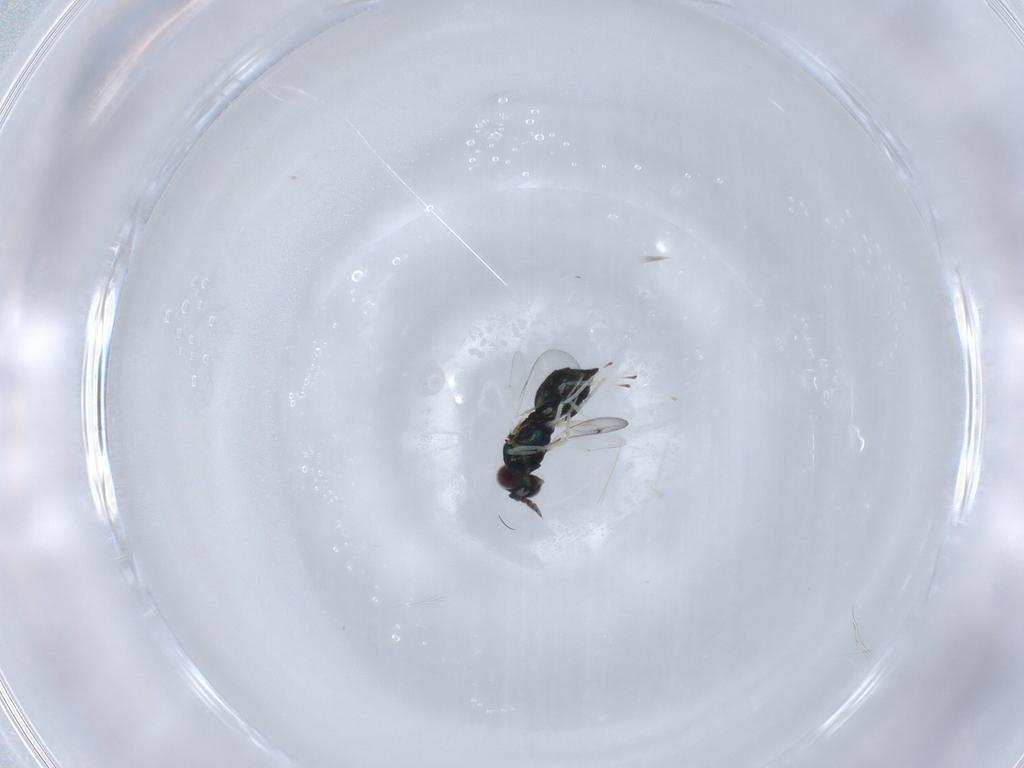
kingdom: Animalia
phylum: Arthropoda
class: Insecta
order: Hymenoptera
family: Eulophidae
